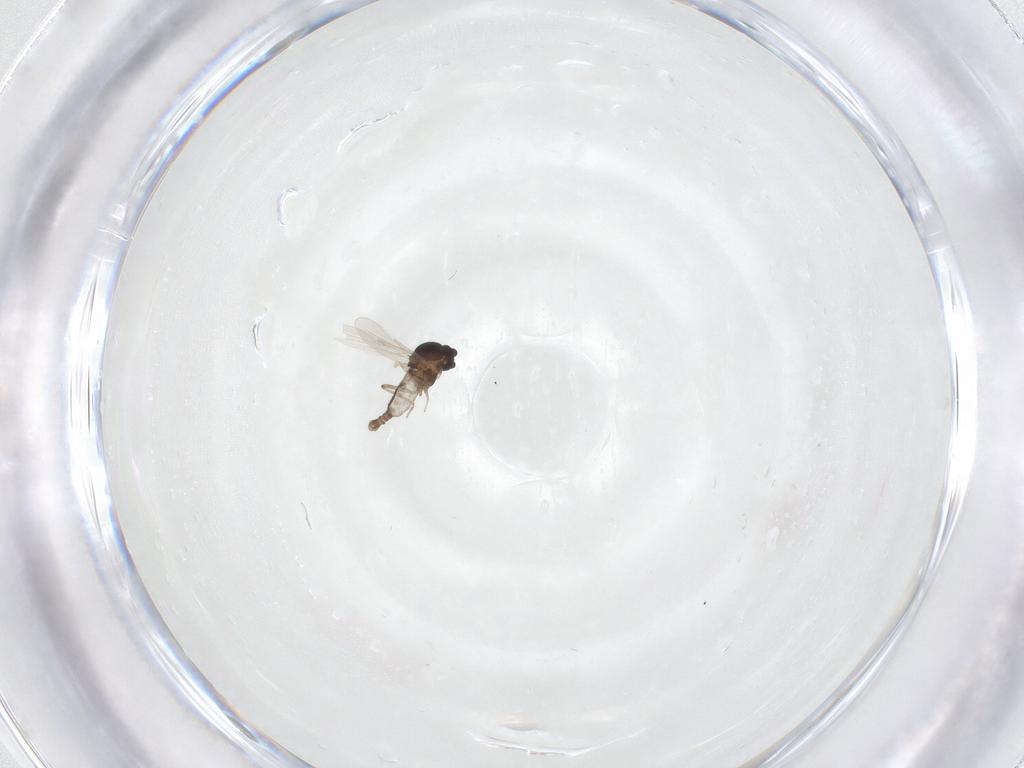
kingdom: Animalia
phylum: Arthropoda
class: Insecta
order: Diptera
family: Ceratopogonidae
